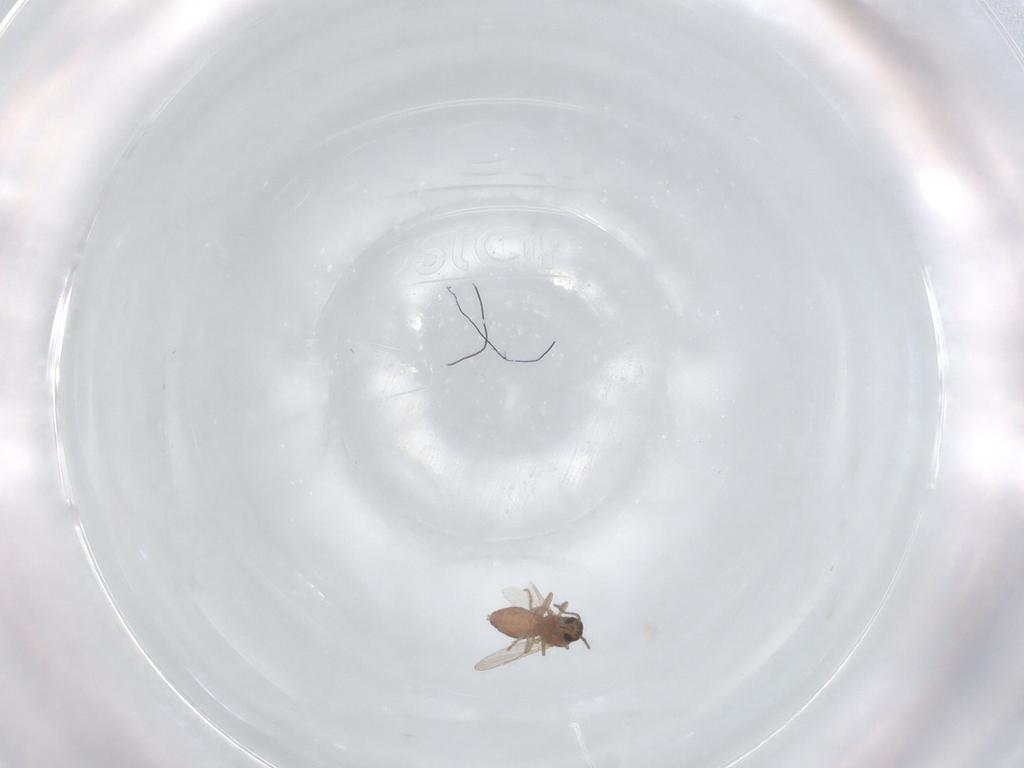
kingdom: Animalia
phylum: Arthropoda
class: Insecta
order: Diptera
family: Ceratopogonidae
